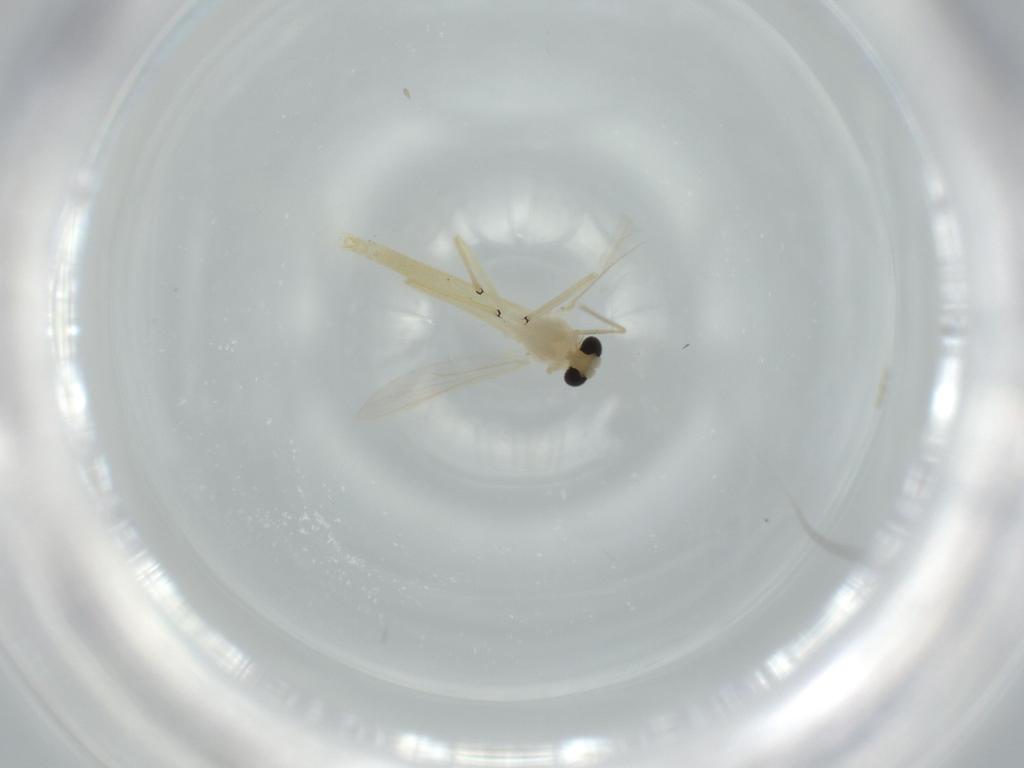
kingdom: Animalia
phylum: Arthropoda
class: Insecta
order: Diptera
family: Chironomidae
